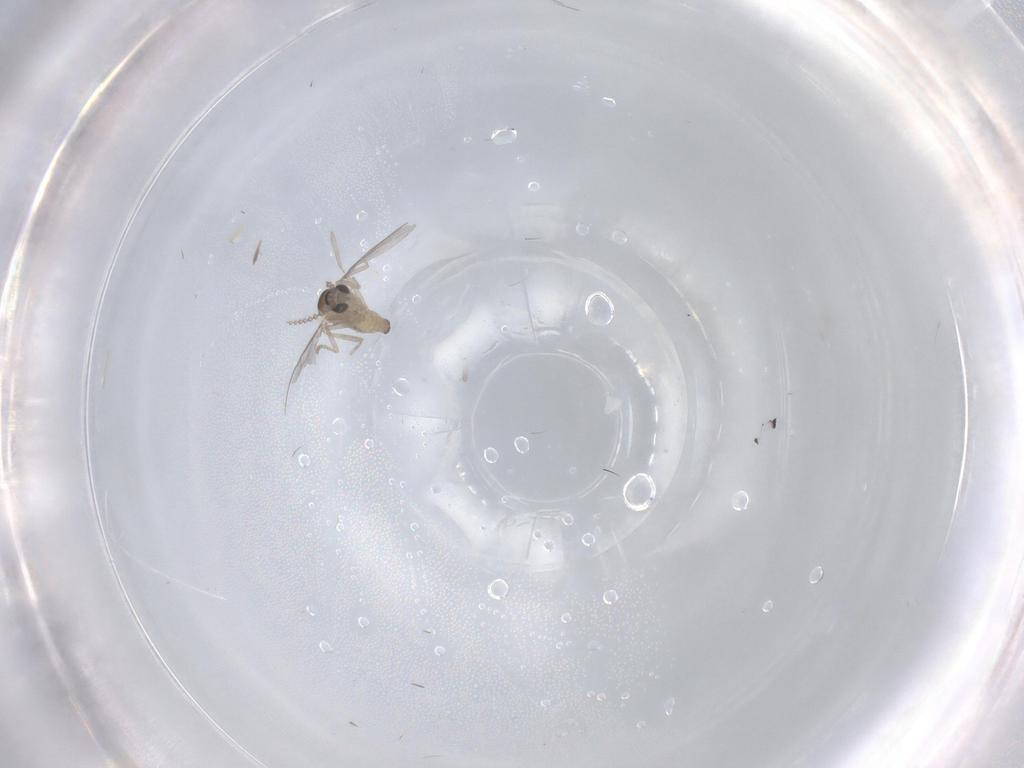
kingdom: Animalia
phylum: Arthropoda
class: Insecta
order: Diptera
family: Cecidomyiidae
